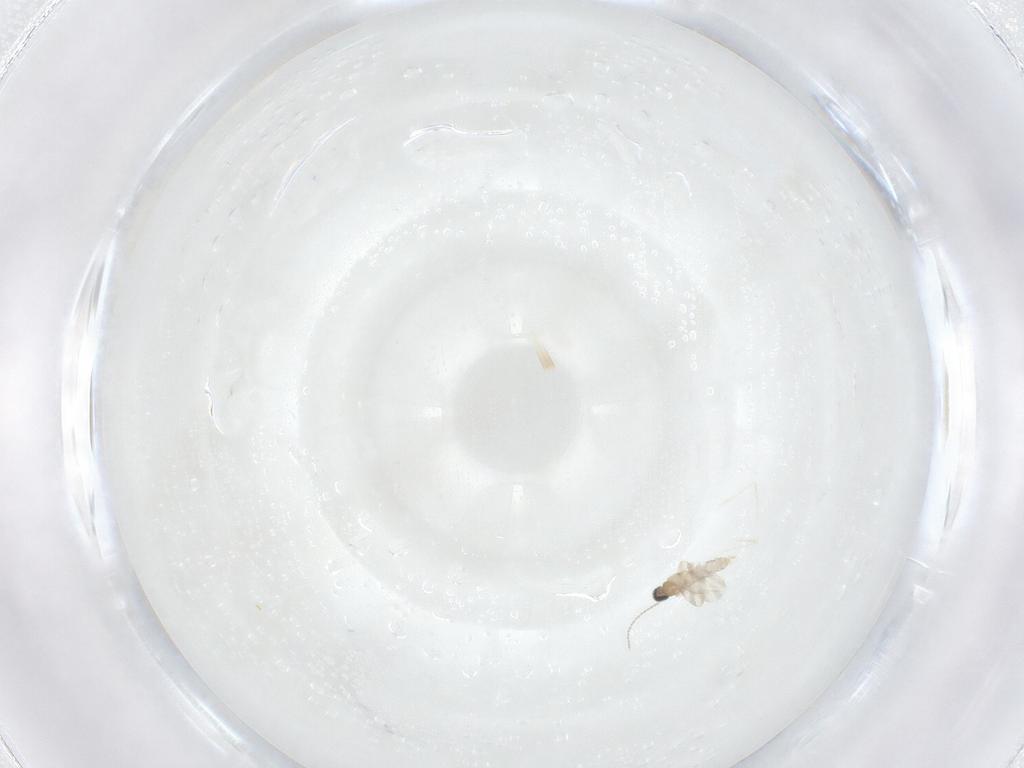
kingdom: Animalia
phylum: Arthropoda
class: Insecta
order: Diptera
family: Cecidomyiidae
